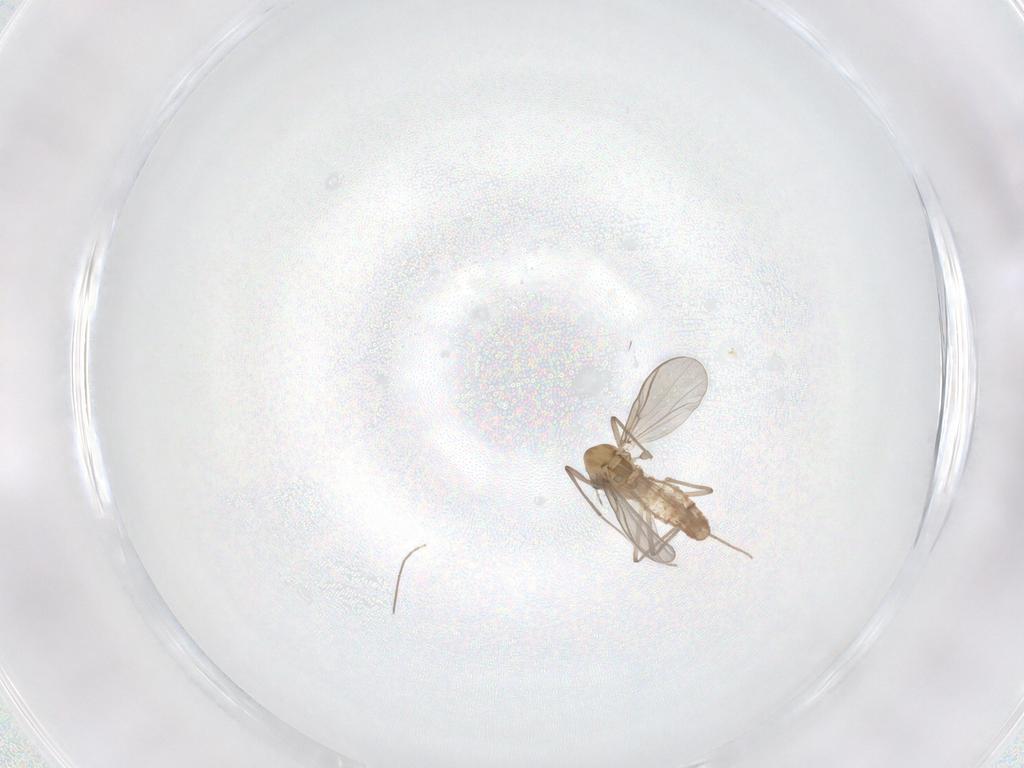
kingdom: Animalia
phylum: Arthropoda
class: Insecta
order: Diptera
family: Chironomidae
